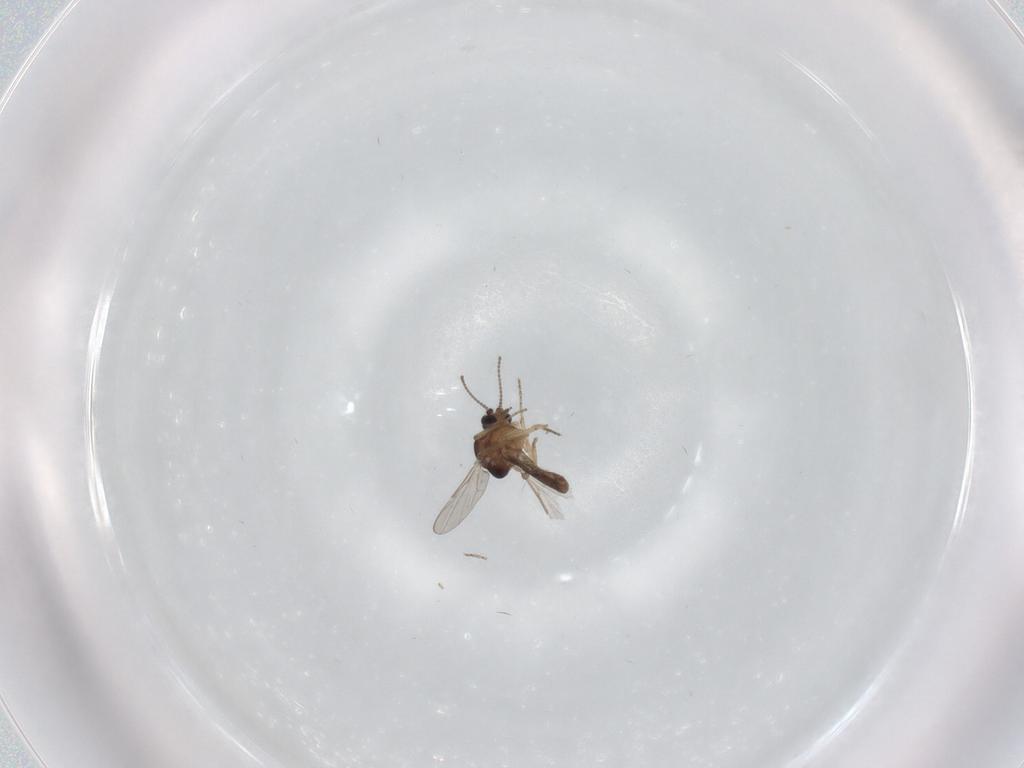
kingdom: Animalia
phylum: Arthropoda
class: Insecta
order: Diptera
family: Ceratopogonidae
